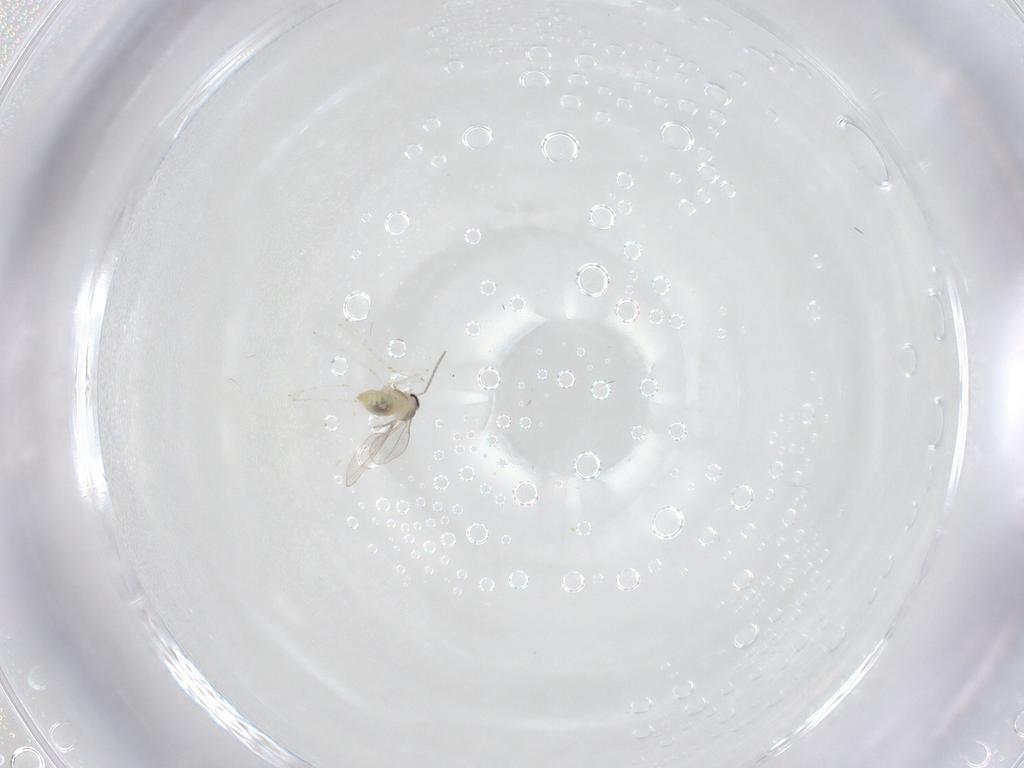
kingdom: Animalia
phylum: Arthropoda
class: Insecta
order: Diptera
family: Cecidomyiidae
